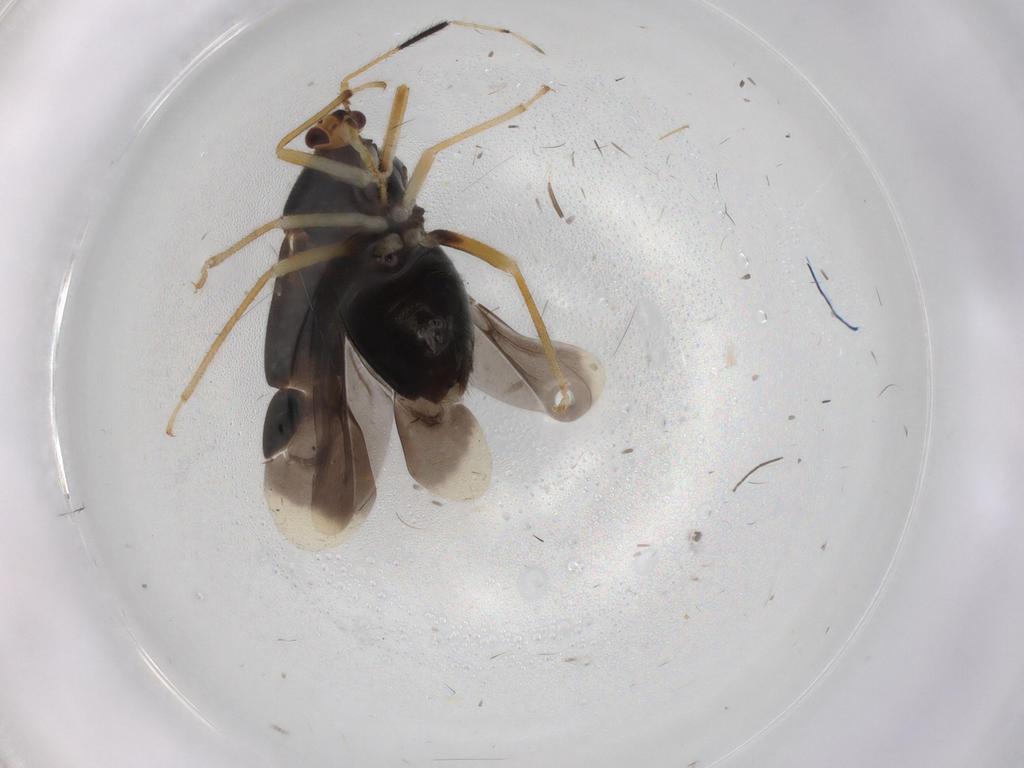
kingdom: Animalia
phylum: Arthropoda
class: Insecta
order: Hemiptera
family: Miridae
